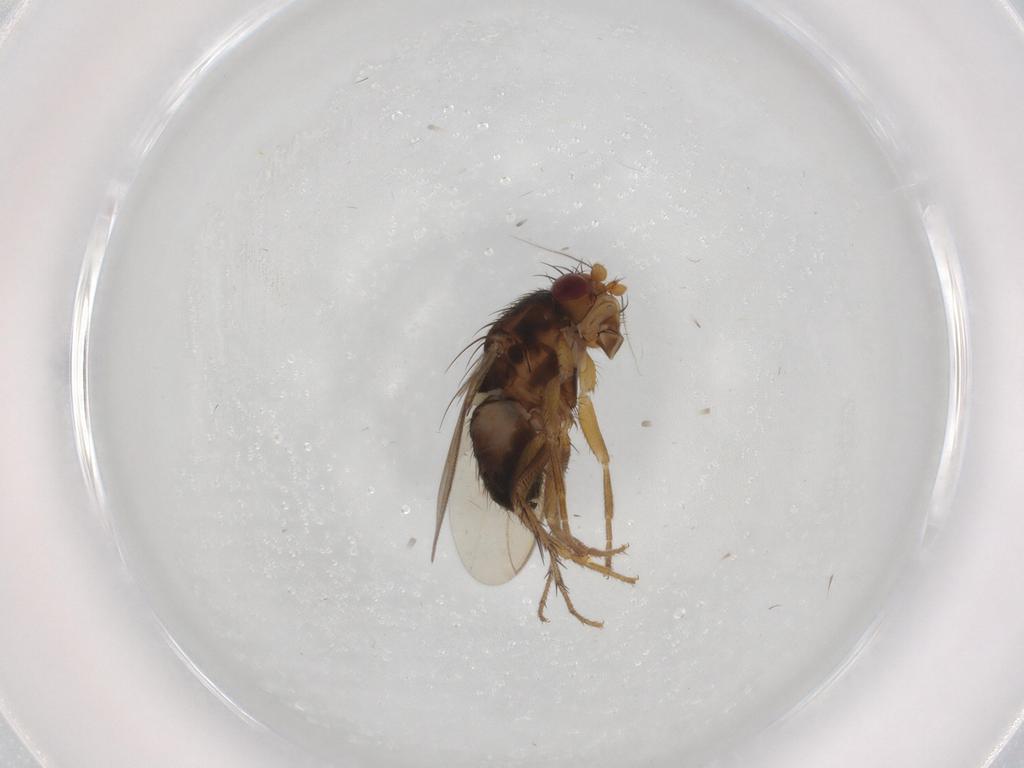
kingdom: Animalia
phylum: Arthropoda
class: Insecta
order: Diptera
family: Sphaeroceridae
